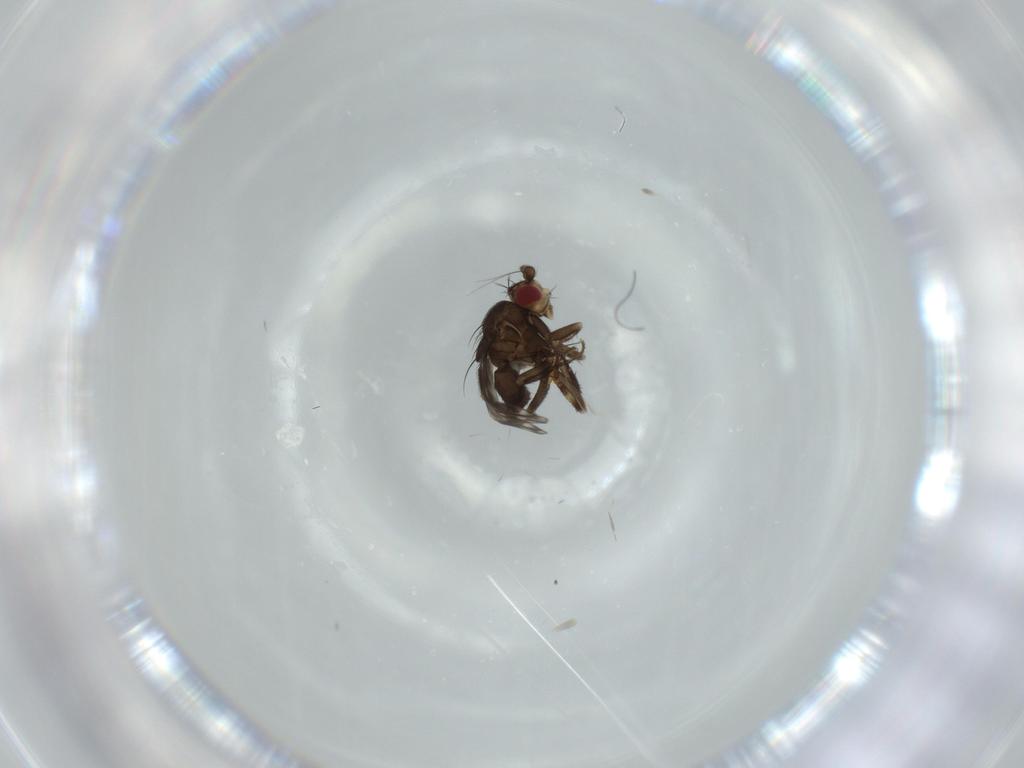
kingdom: Animalia
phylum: Arthropoda
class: Insecta
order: Diptera
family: Sphaeroceridae
